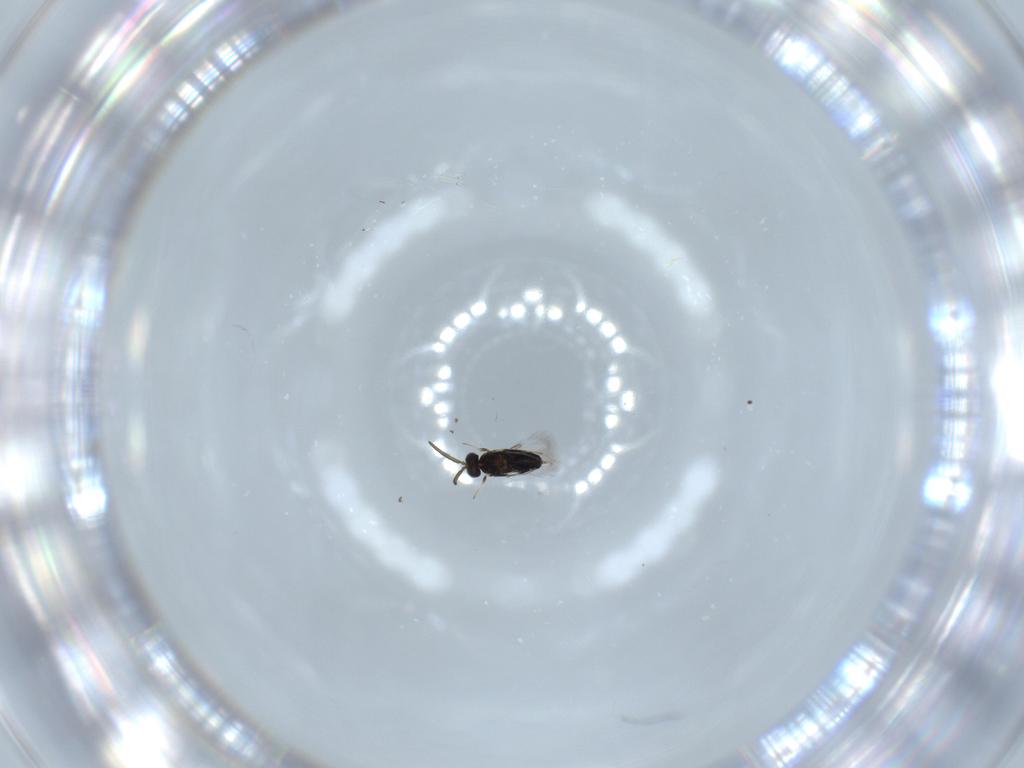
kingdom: Animalia
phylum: Arthropoda
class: Insecta
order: Hymenoptera
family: Signiphoridae
